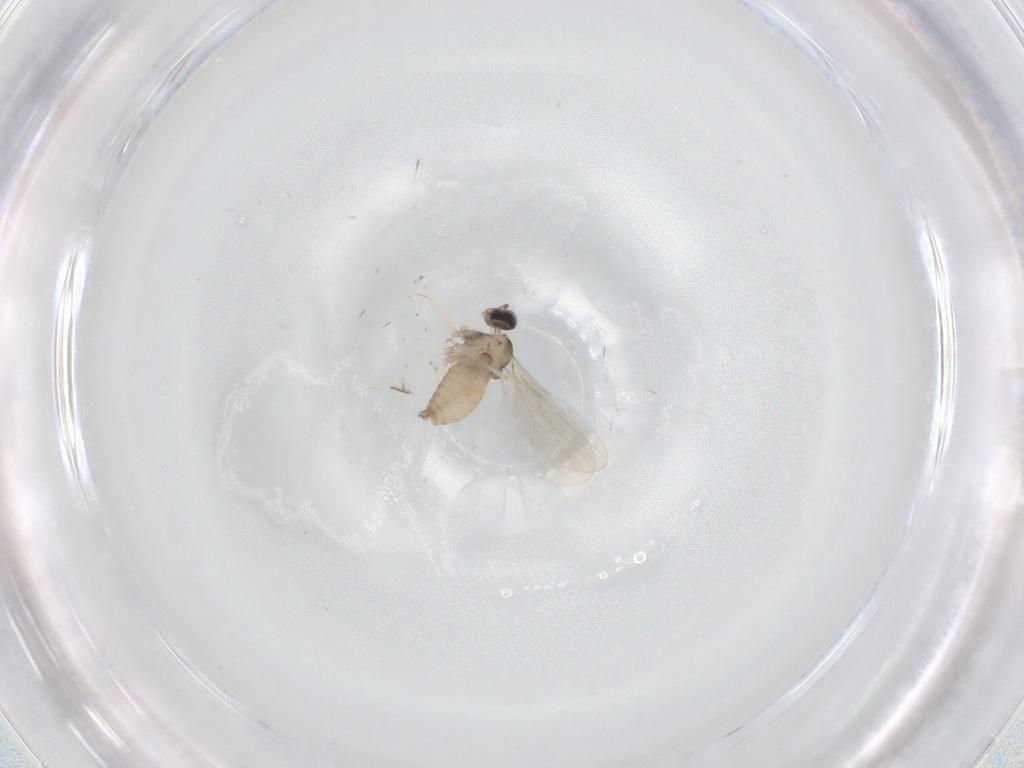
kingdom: Animalia
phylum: Arthropoda
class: Insecta
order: Diptera
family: Cecidomyiidae
